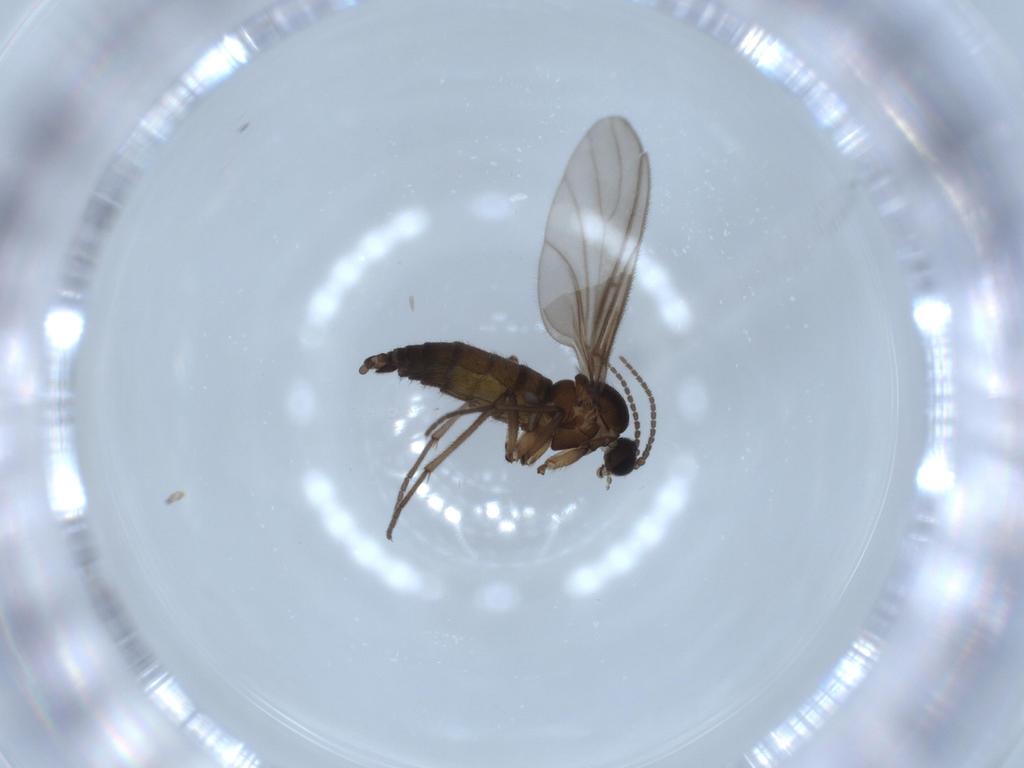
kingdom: Animalia
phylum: Arthropoda
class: Insecta
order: Diptera
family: Sciaridae
